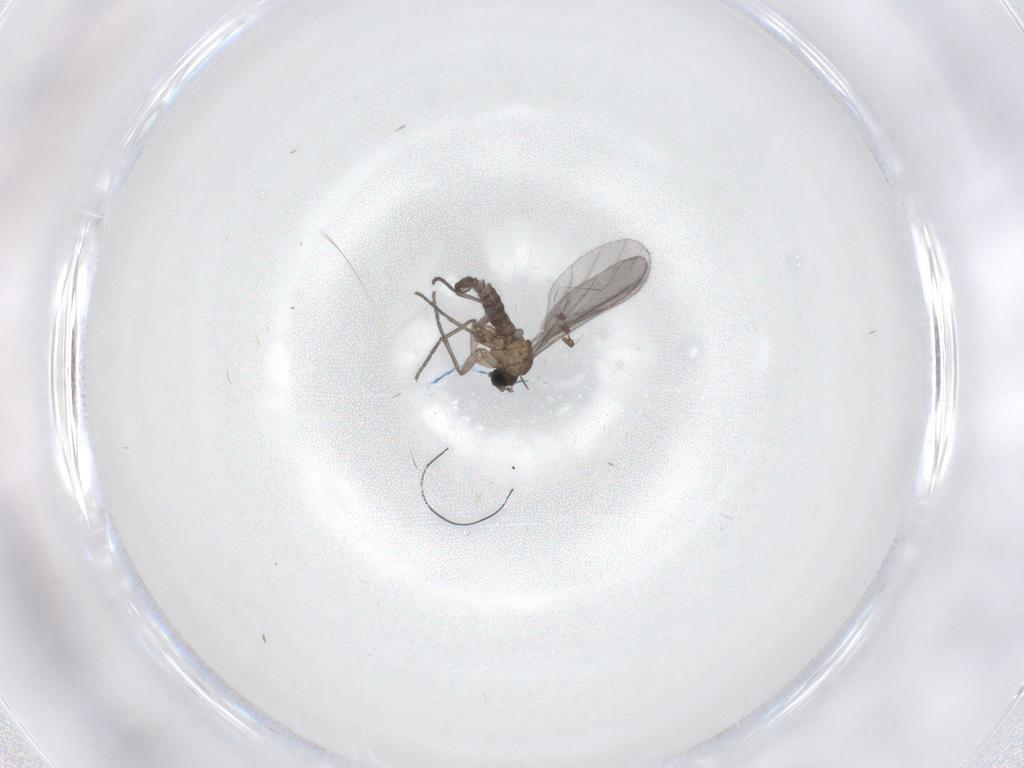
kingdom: Animalia
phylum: Arthropoda
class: Insecta
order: Diptera
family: Sciaridae
